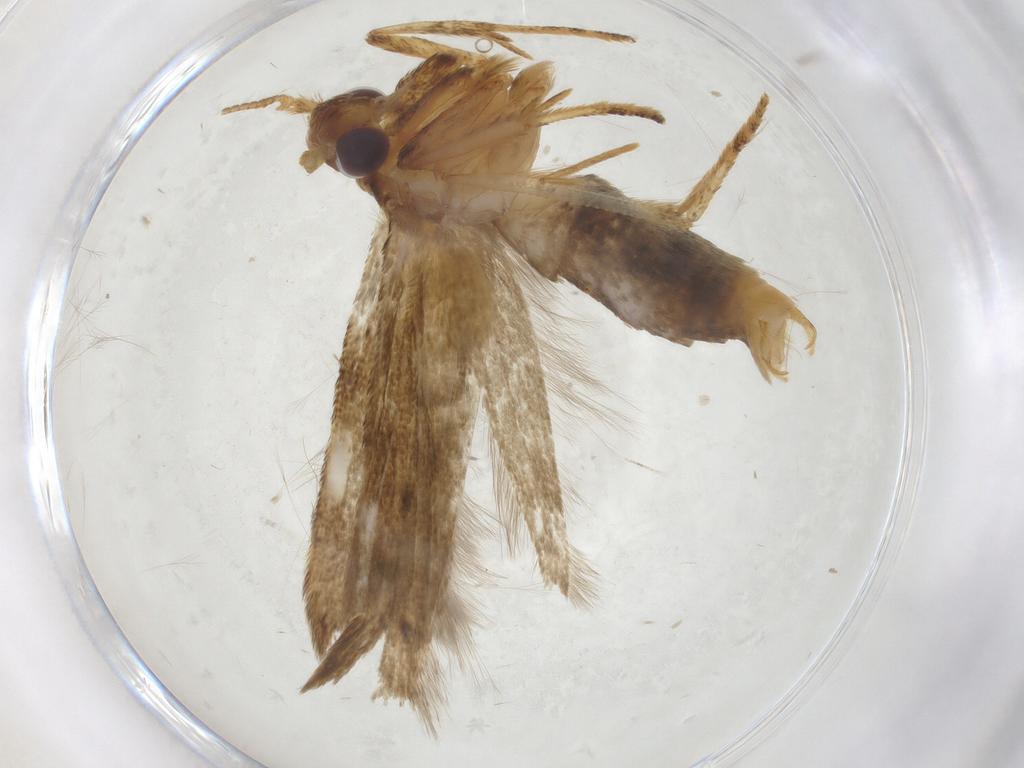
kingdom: Animalia
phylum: Arthropoda
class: Insecta
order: Lepidoptera
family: Blastobasidae
